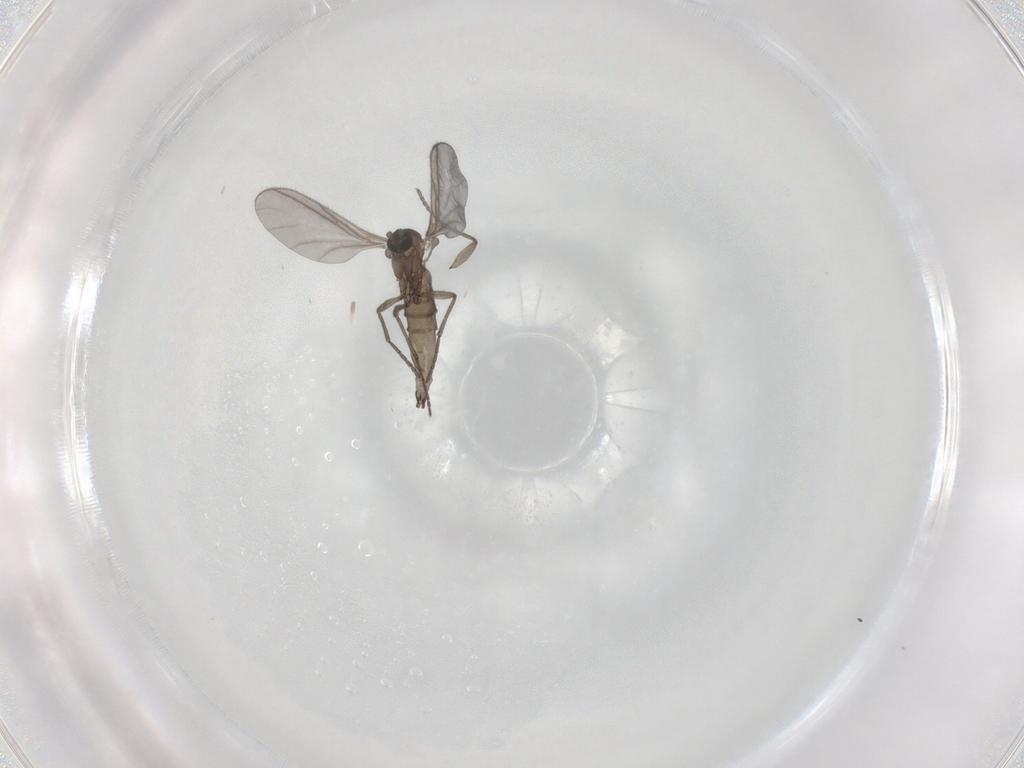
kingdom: Animalia
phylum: Arthropoda
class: Insecta
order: Diptera
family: Sciaridae
